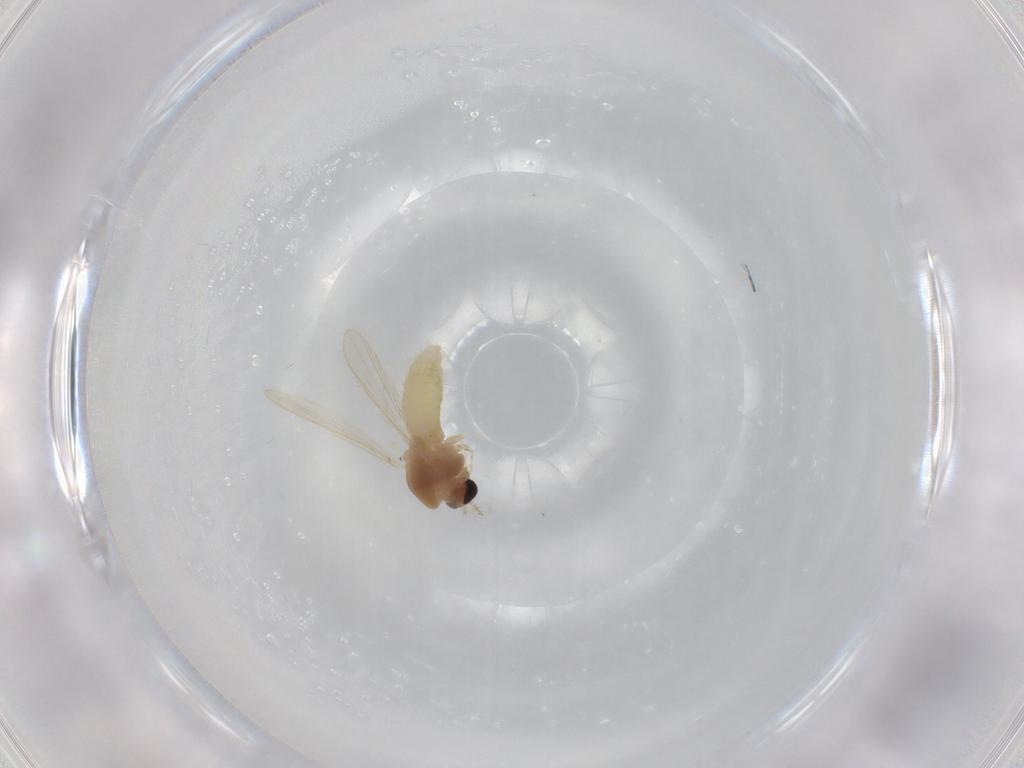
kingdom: Animalia
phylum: Arthropoda
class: Insecta
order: Diptera
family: Chironomidae
